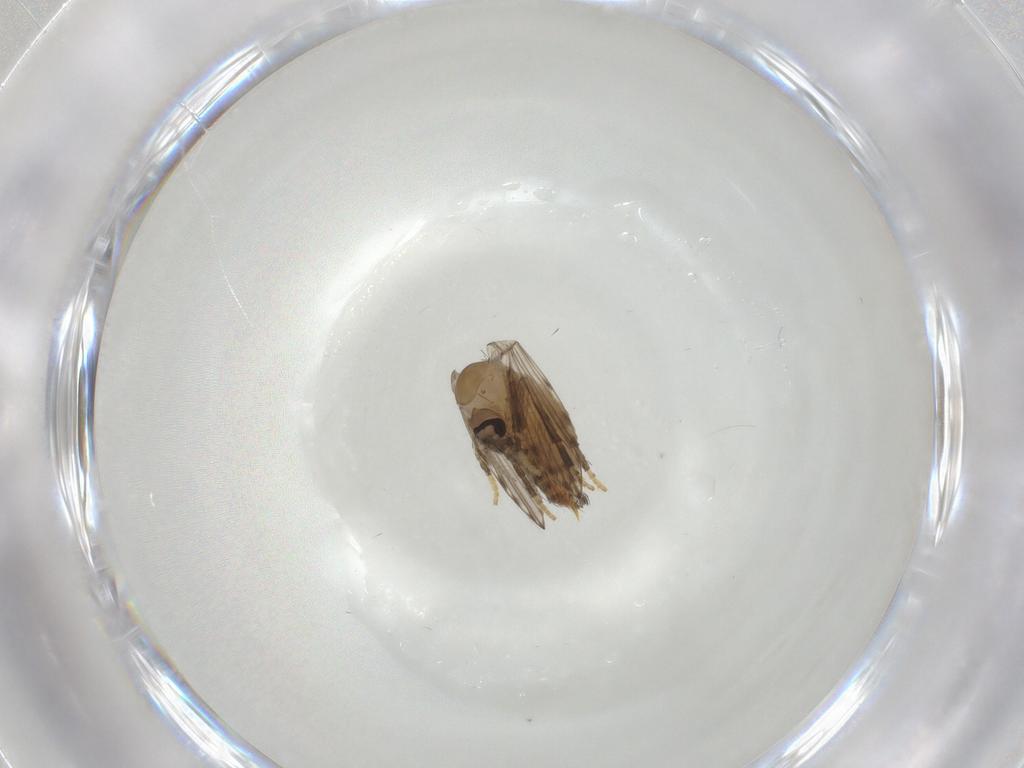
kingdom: Animalia
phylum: Arthropoda
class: Insecta
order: Diptera
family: Psychodidae
